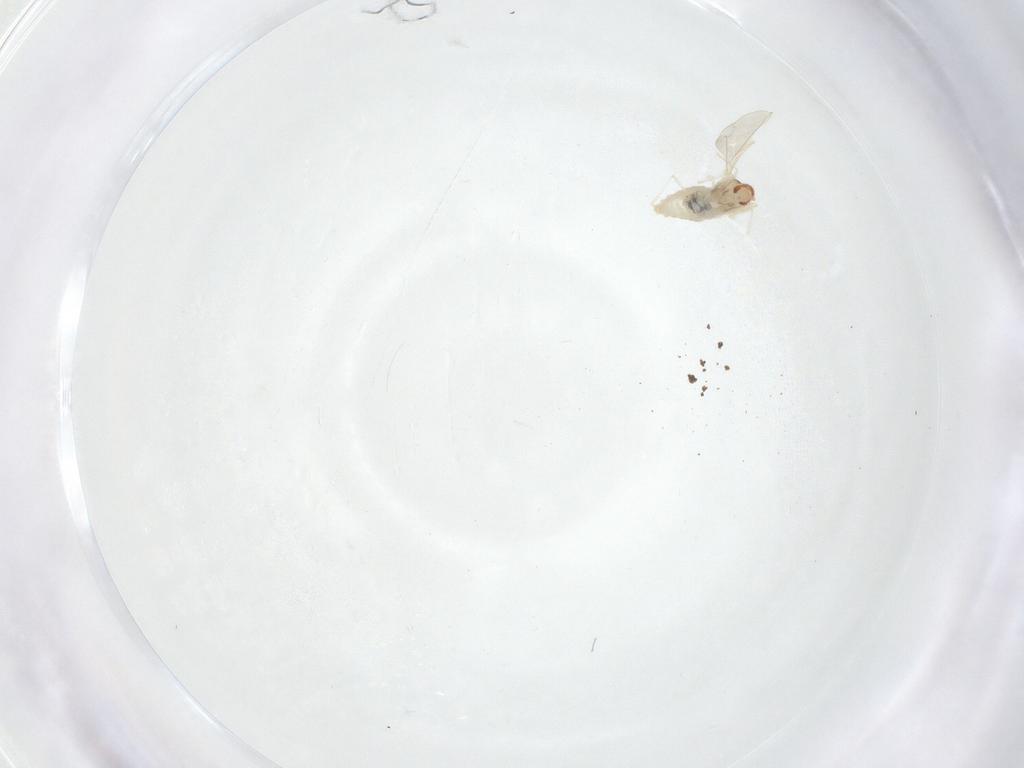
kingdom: Animalia
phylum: Arthropoda
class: Insecta
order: Diptera
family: Cecidomyiidae
